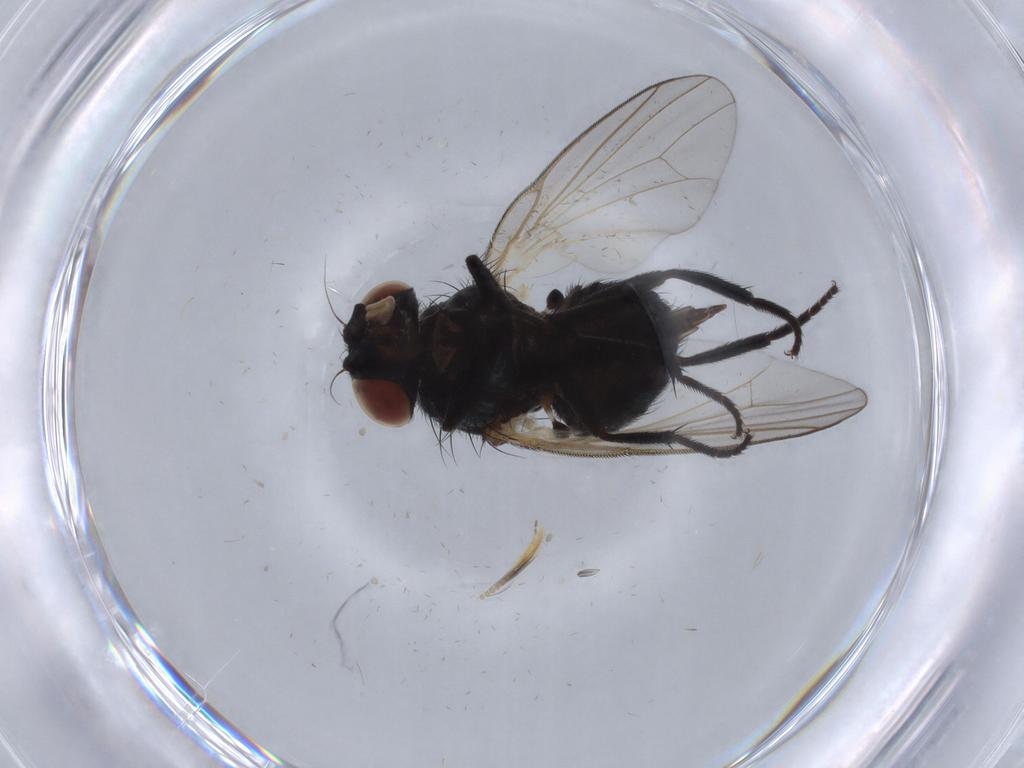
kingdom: Animalia
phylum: Arthropoda
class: Insecta
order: Diptera
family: Lonchaeidae
